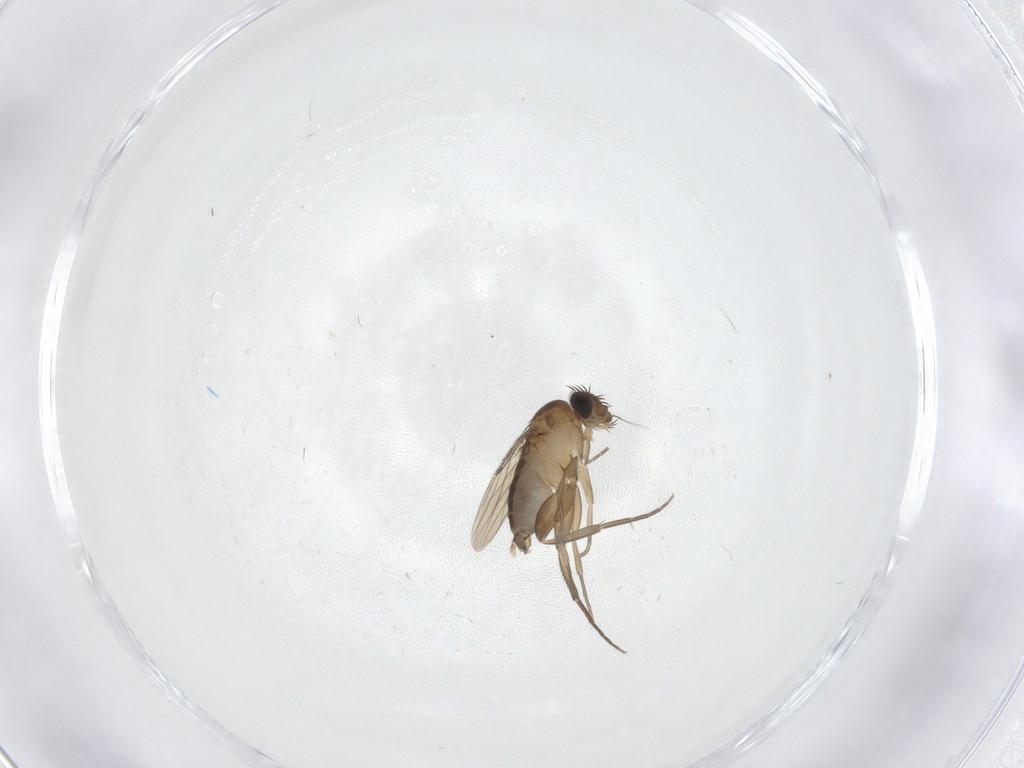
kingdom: Animalia
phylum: Arthropoda
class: Insecta
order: Diptera
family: Phoridae
